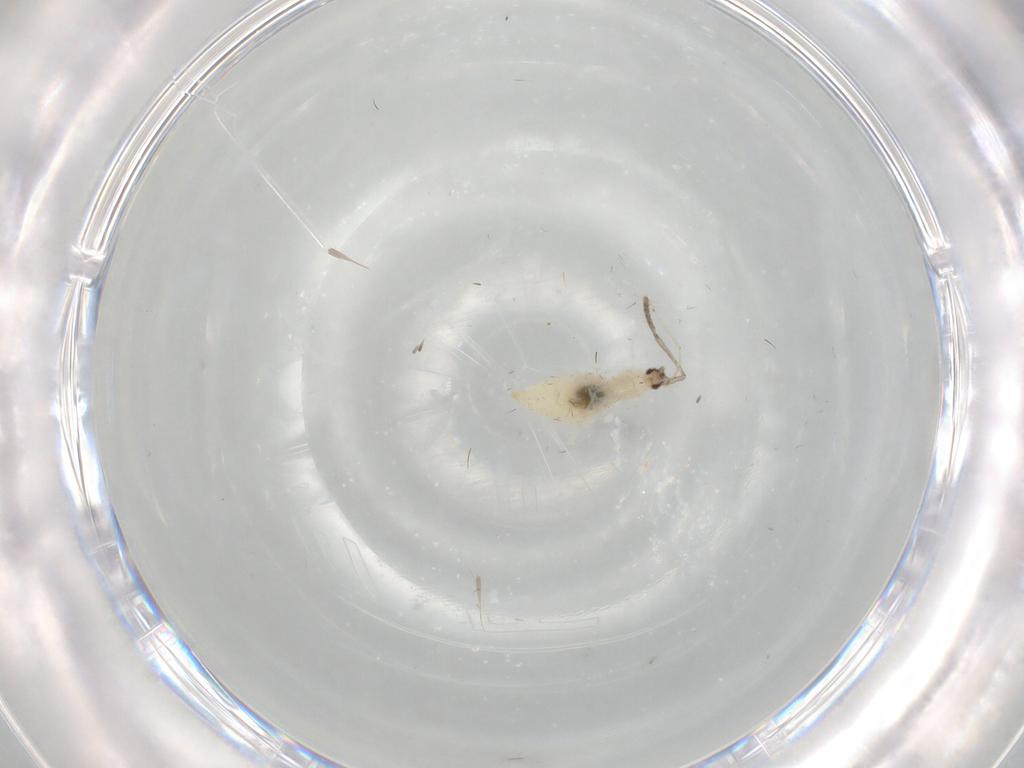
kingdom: Animalia
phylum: Arthropoda
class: Insecta
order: Diptera
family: Cecidomyiidae
